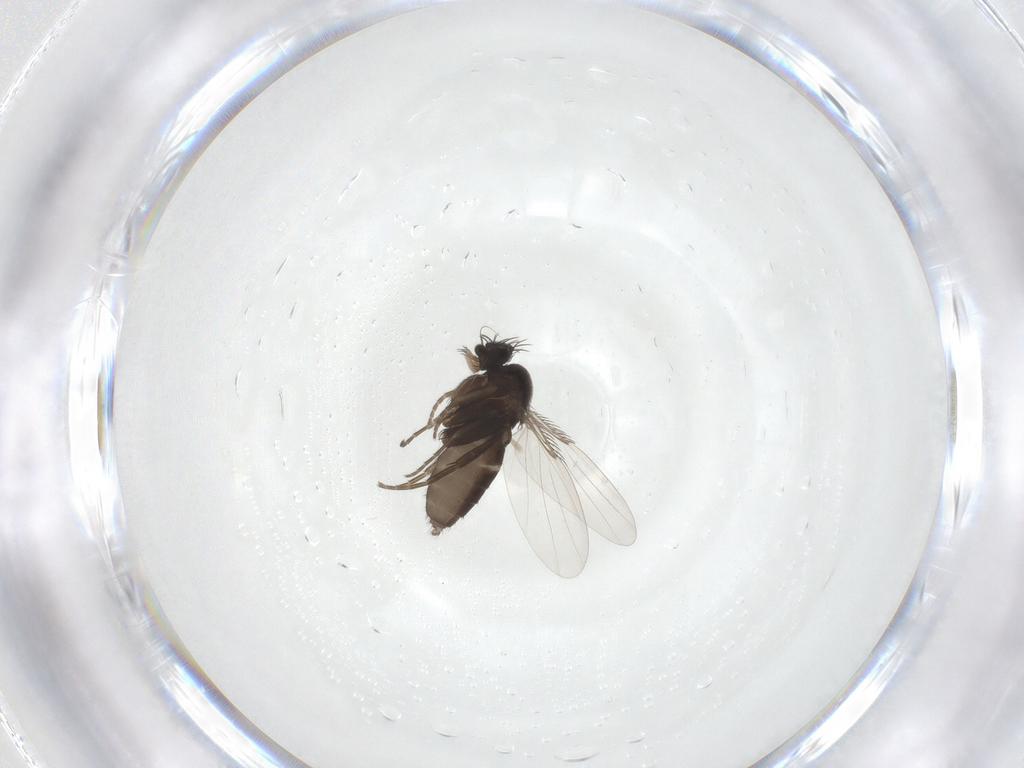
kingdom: Animalia
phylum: Arthropoda
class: Insecta
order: Diptera
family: Phoridae
